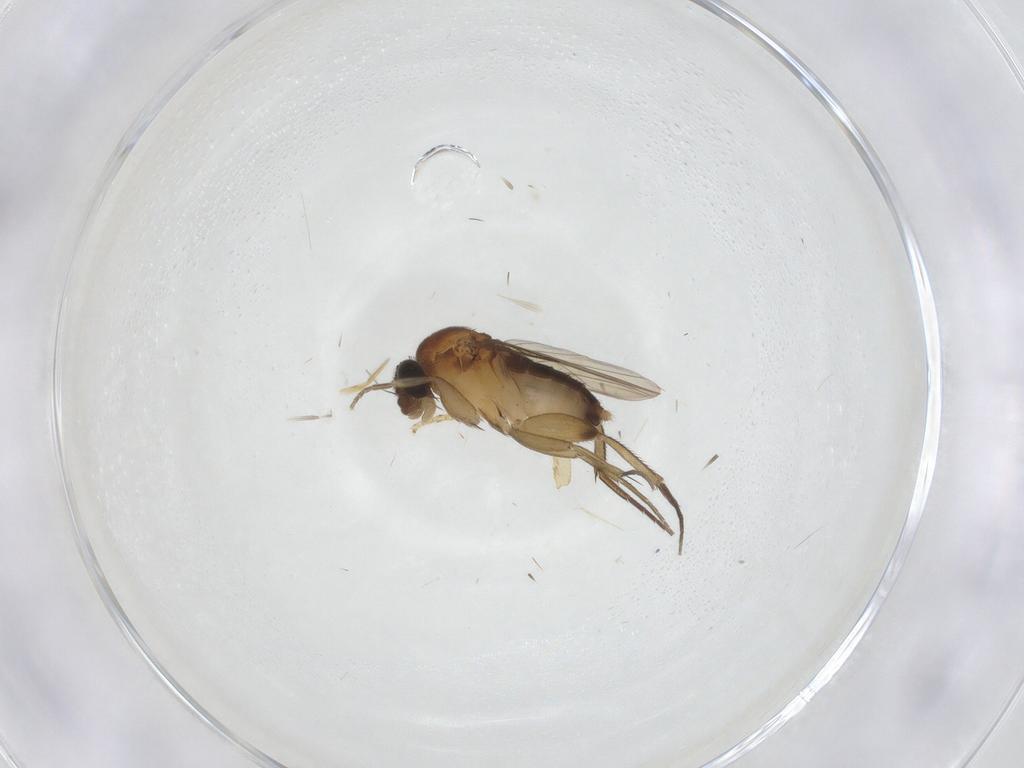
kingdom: Animalia
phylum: Arthropoda
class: Insecta
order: Diptera
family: Phoridae
